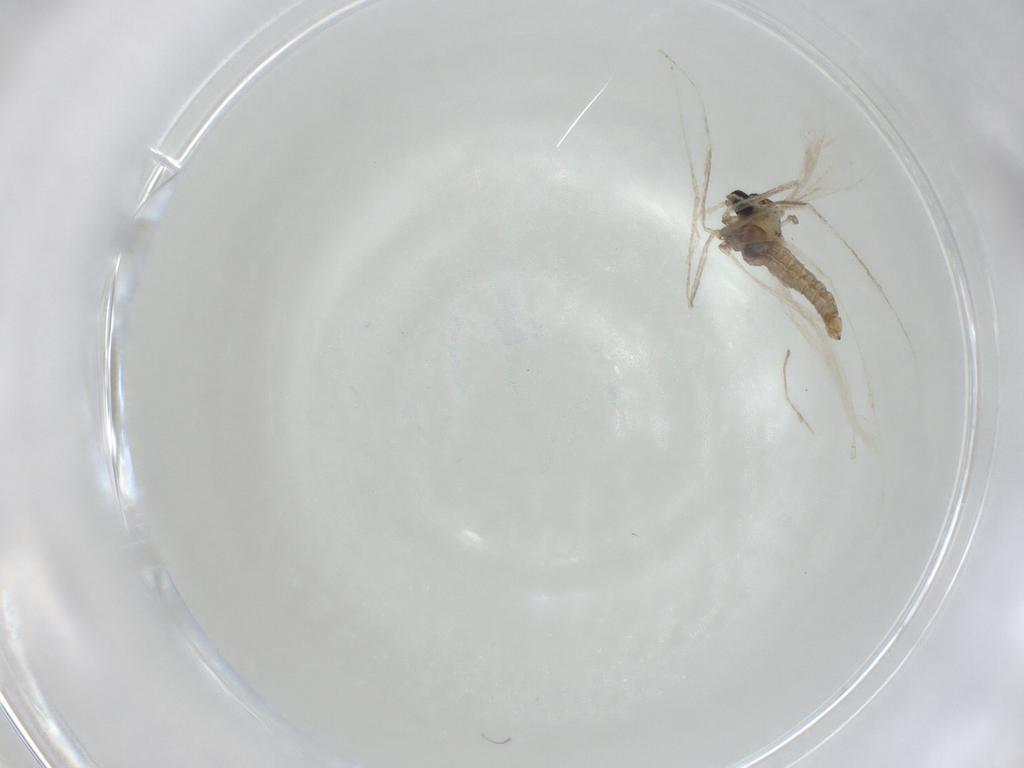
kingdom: Animalia
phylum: Arthropoda
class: Insecta
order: Diptera
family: Cecidomyiidae
